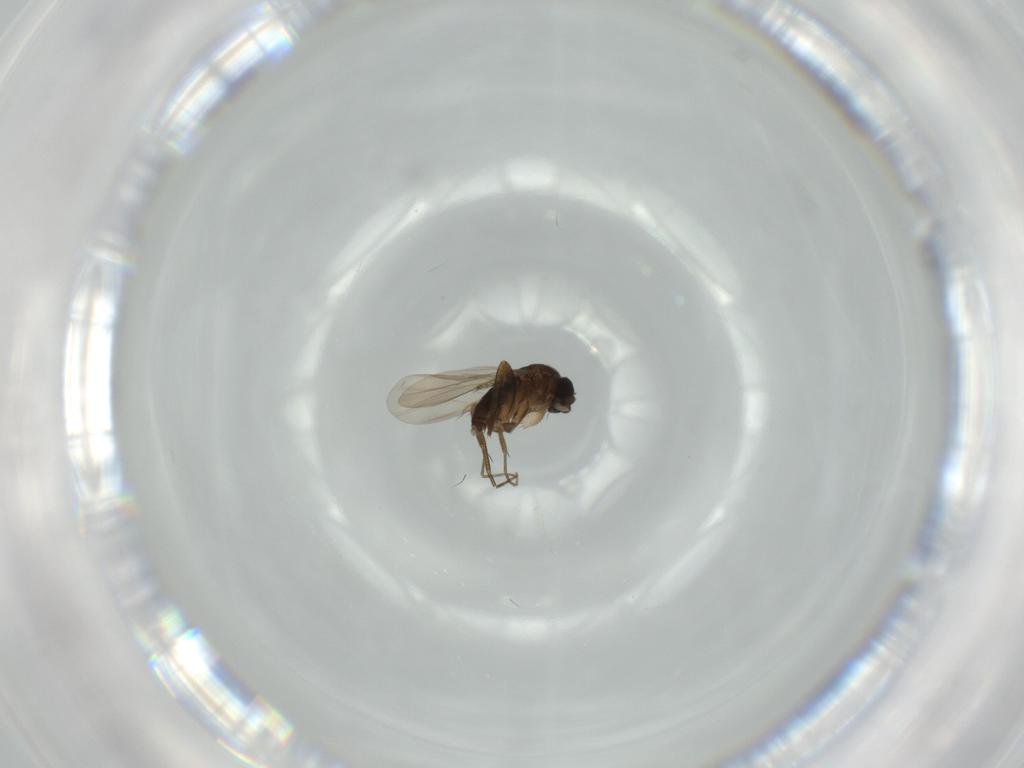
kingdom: Animalia
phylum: Arthropoda
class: Insecta
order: Diptera
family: Phoridae
